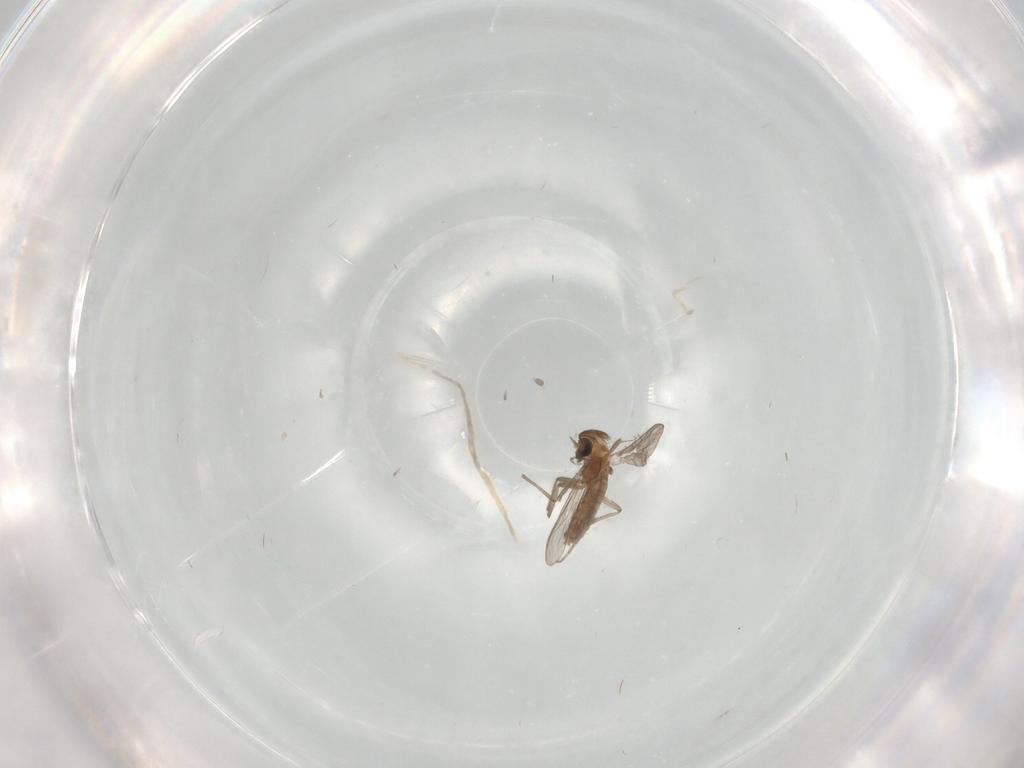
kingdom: Animalia
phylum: Arthropoda
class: Insecta
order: Diptera
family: Chironomidae
